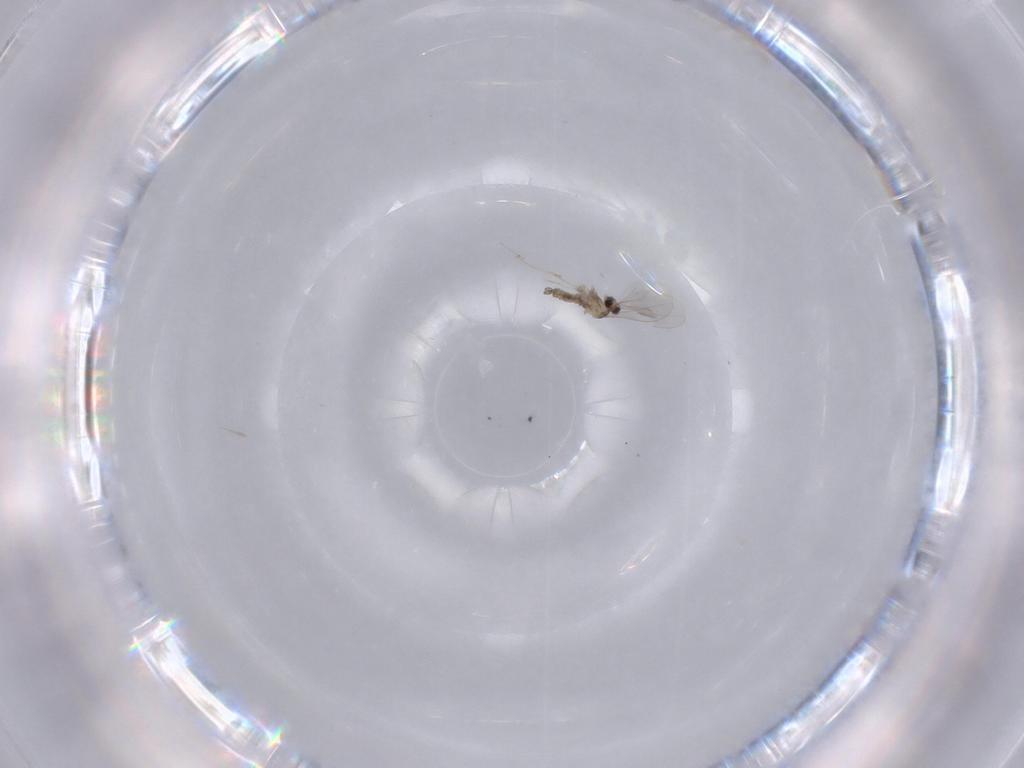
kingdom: Animalia
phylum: Arthropoda
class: Insecta
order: Diptera
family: Cecidomyiidae
